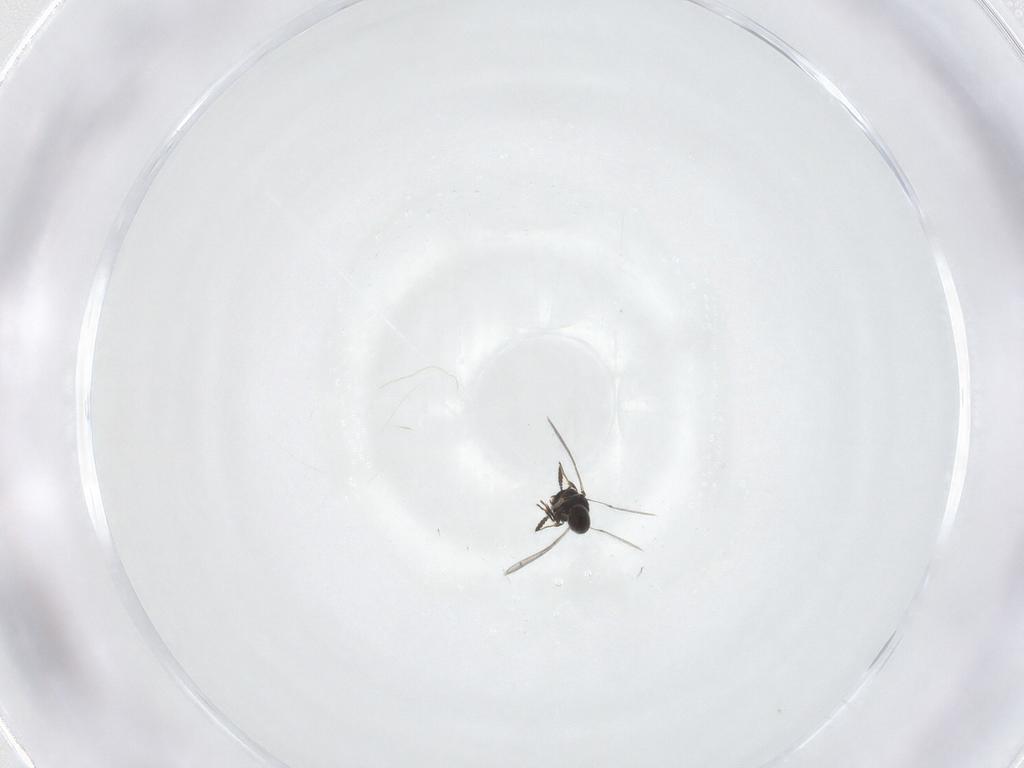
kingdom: Animalia
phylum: Arthropoda
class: Insecta
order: Hymenoptera
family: Scelionidae
